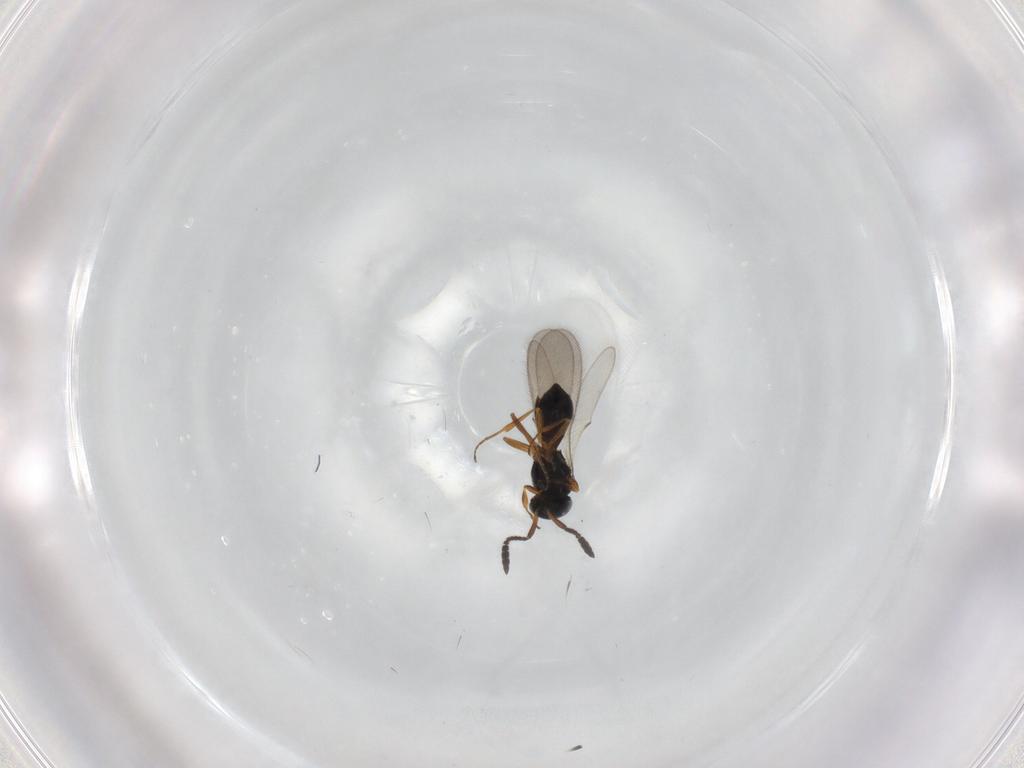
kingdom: Animalia
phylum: Arthropoda
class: Insecta
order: Hymenoptera
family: Scelionidae
